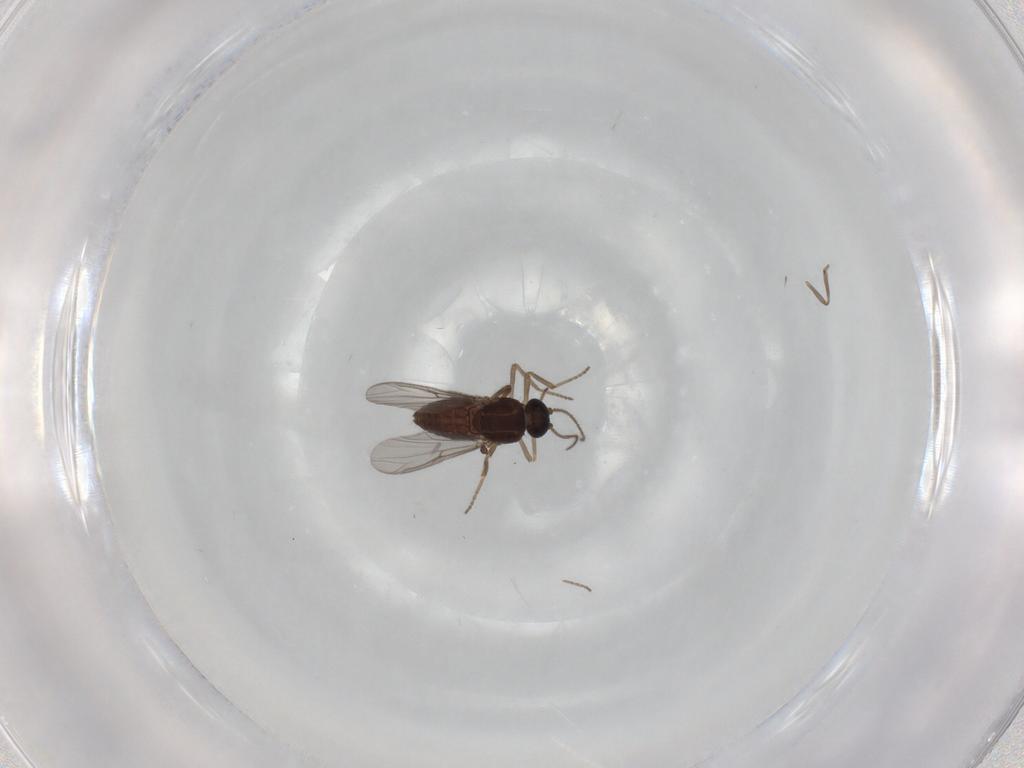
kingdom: Animalia
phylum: Arthropoda
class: Insecta
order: Diptera
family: Ceratopogonidae
